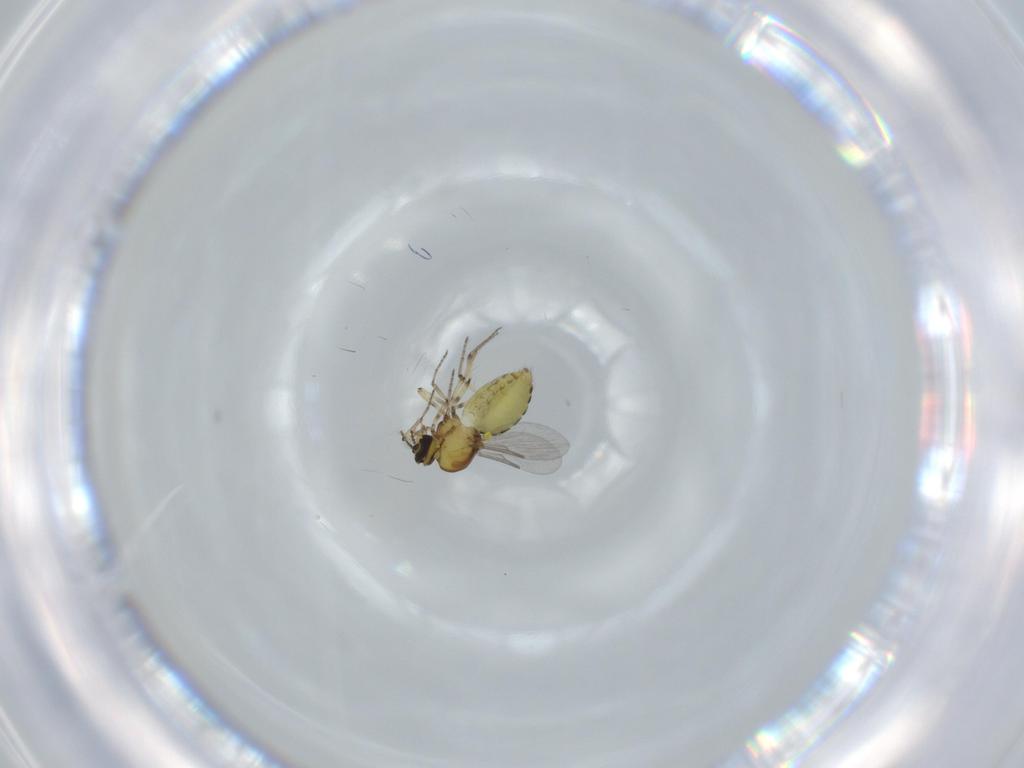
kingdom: Animalia
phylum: Arthropoda
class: Insecta
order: Diptera
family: Ceratopogonidae
